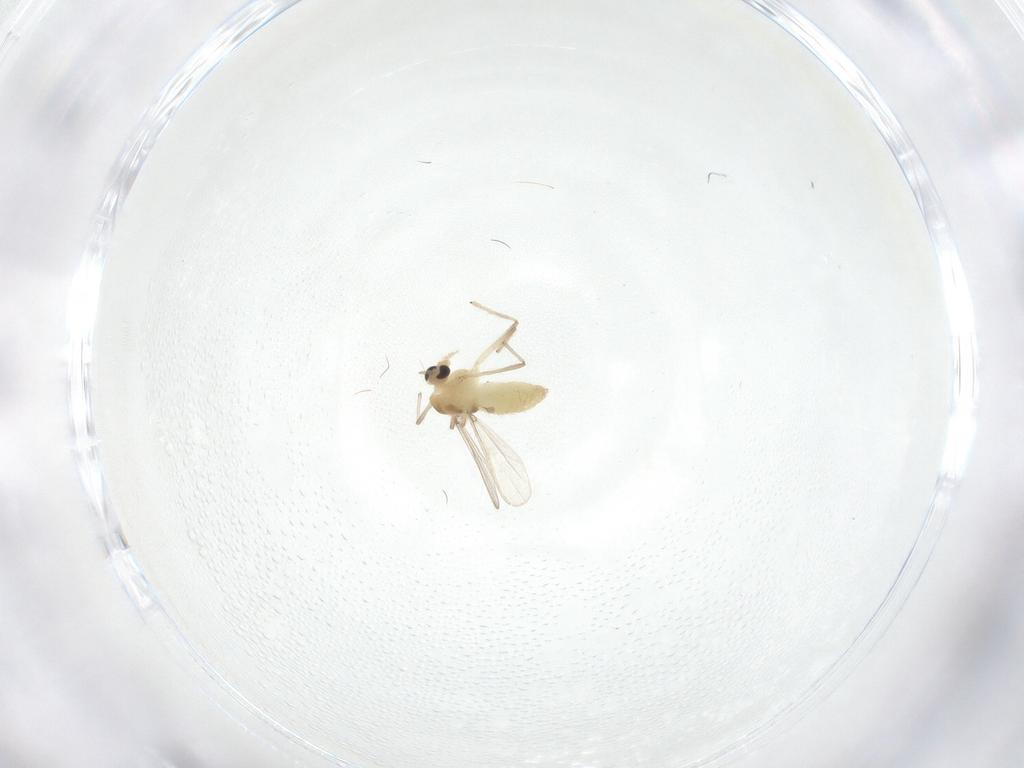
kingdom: Animalia
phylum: Arthropoda
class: Insecta
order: Diptera
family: Chironomidae
